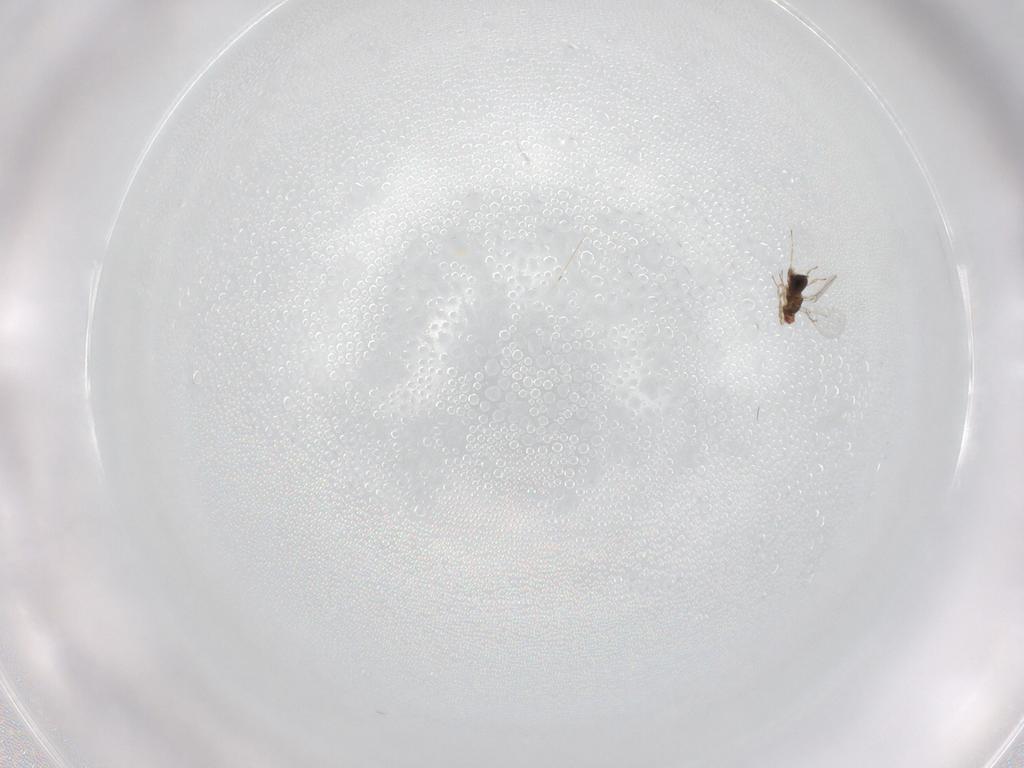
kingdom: Animalia
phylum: Arthropoda
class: Insecta
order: Hymenoptera
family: Trichogrammatidae
